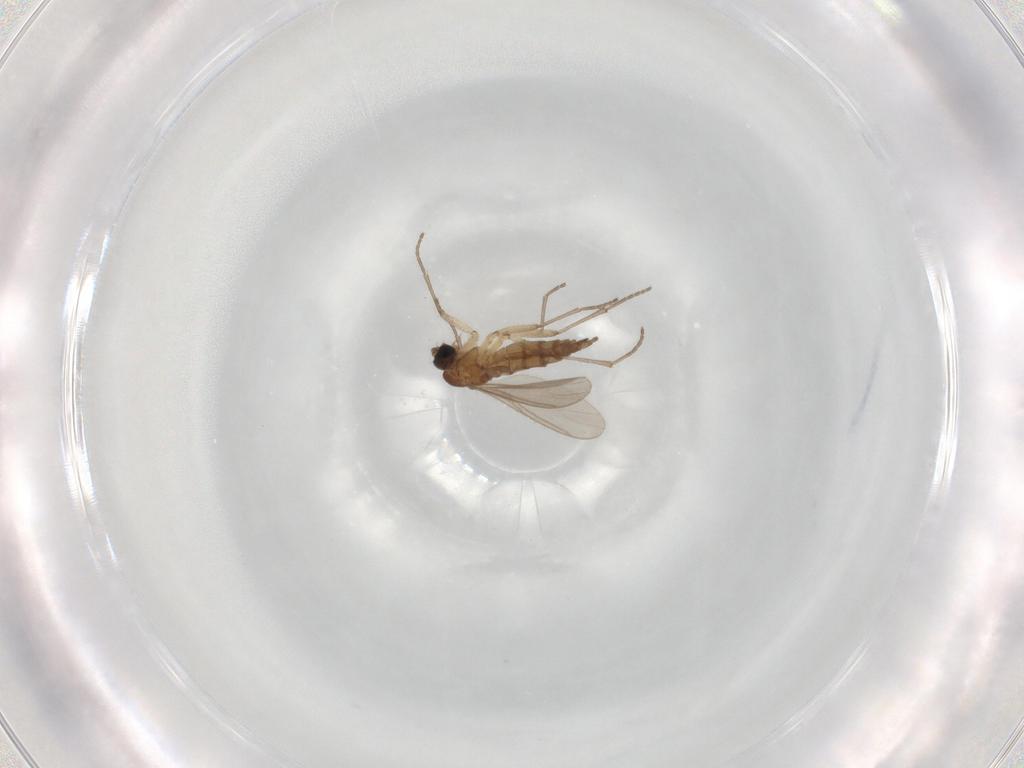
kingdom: Animalia
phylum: Arthropoda
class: Insecta
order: Diptera
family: Sciaridae
